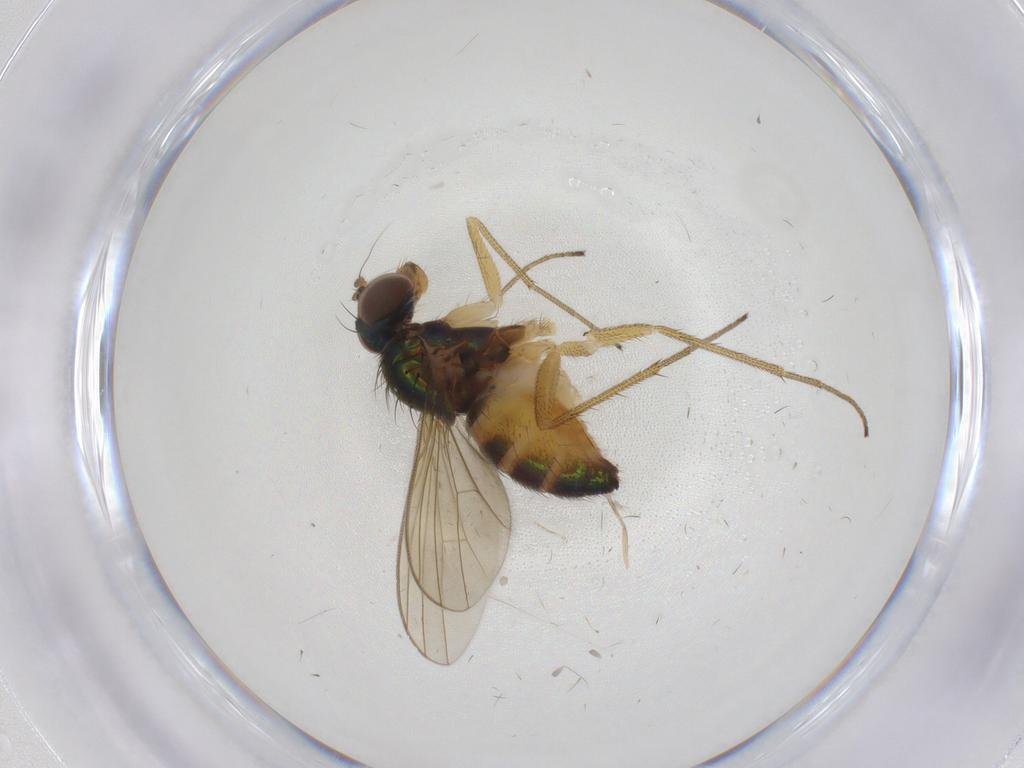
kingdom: Animalia
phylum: Arthropoda
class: Insecta
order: Diptera
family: Dolichopodidae
